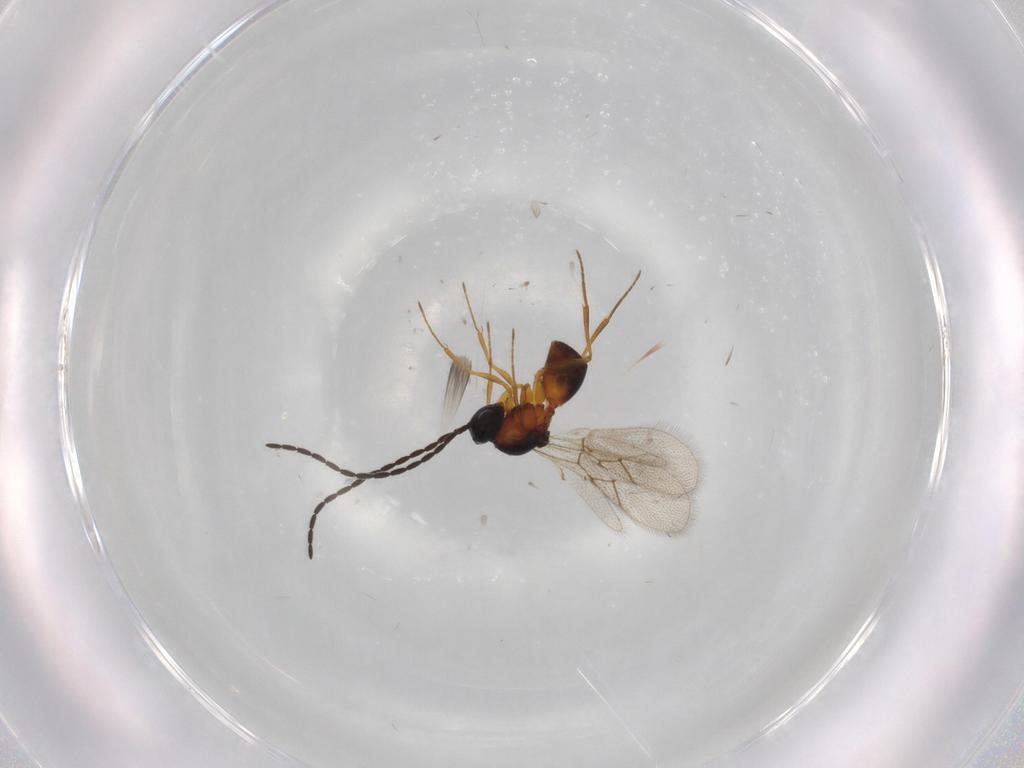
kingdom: Animalia
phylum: Arthropoda
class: Insecta
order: Hymenoptera
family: Figitidae
